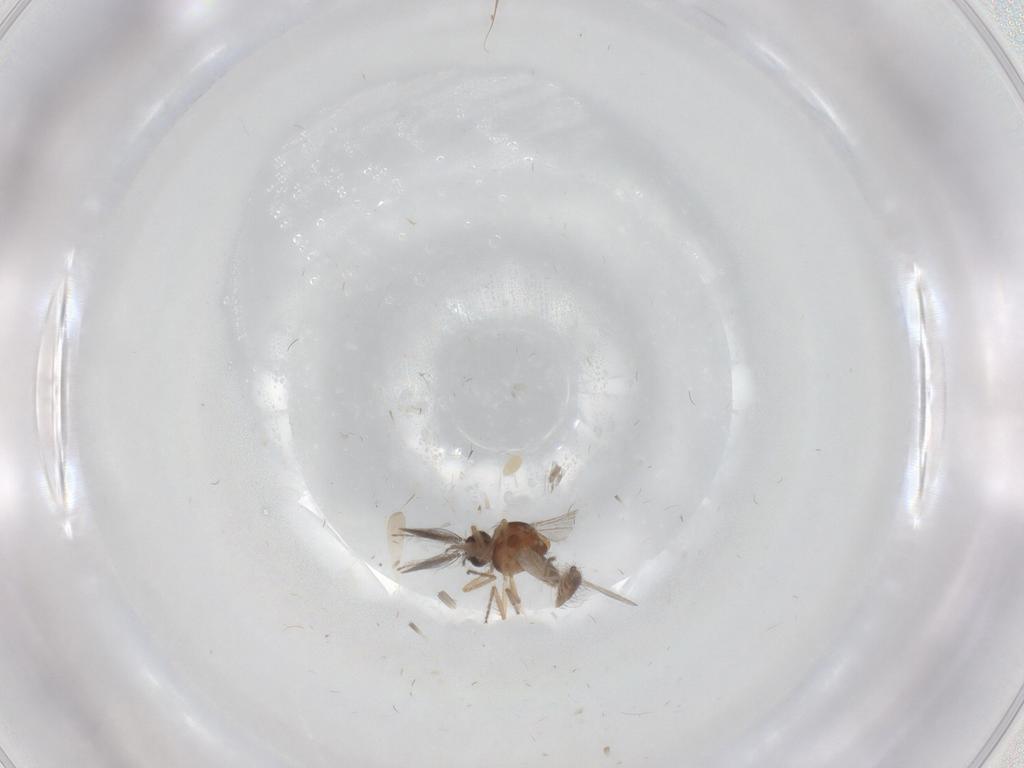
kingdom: Animalia
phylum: Arthropoda
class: Insecta
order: Diptera
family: Ceratopogonidae
